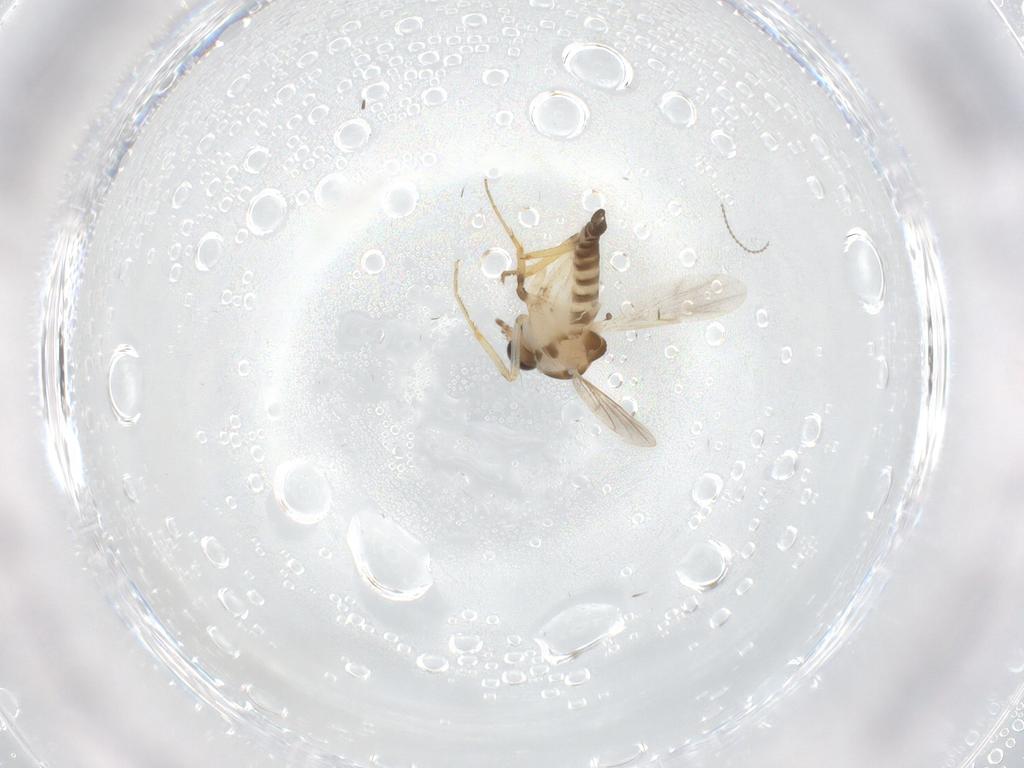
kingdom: Animalia
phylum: Arthropoda
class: Insecta
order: Diptera
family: Ceratopogonidae
